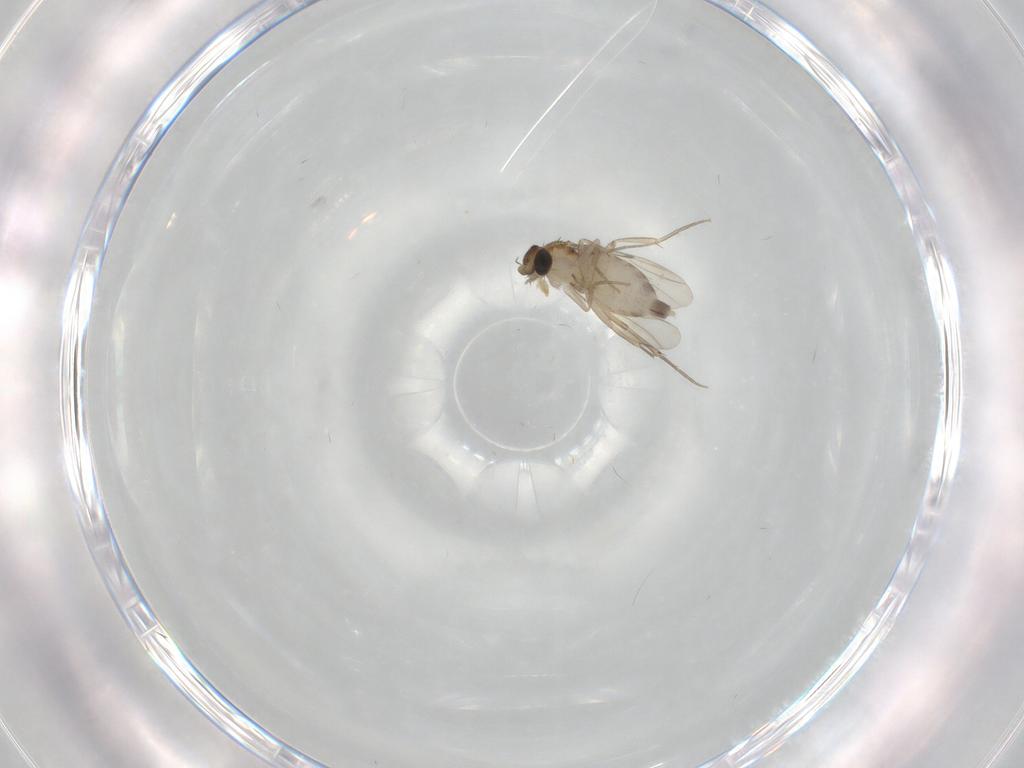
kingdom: Animalia
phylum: Arthropoda
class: Insecta
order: Diptera
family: Phoridae
